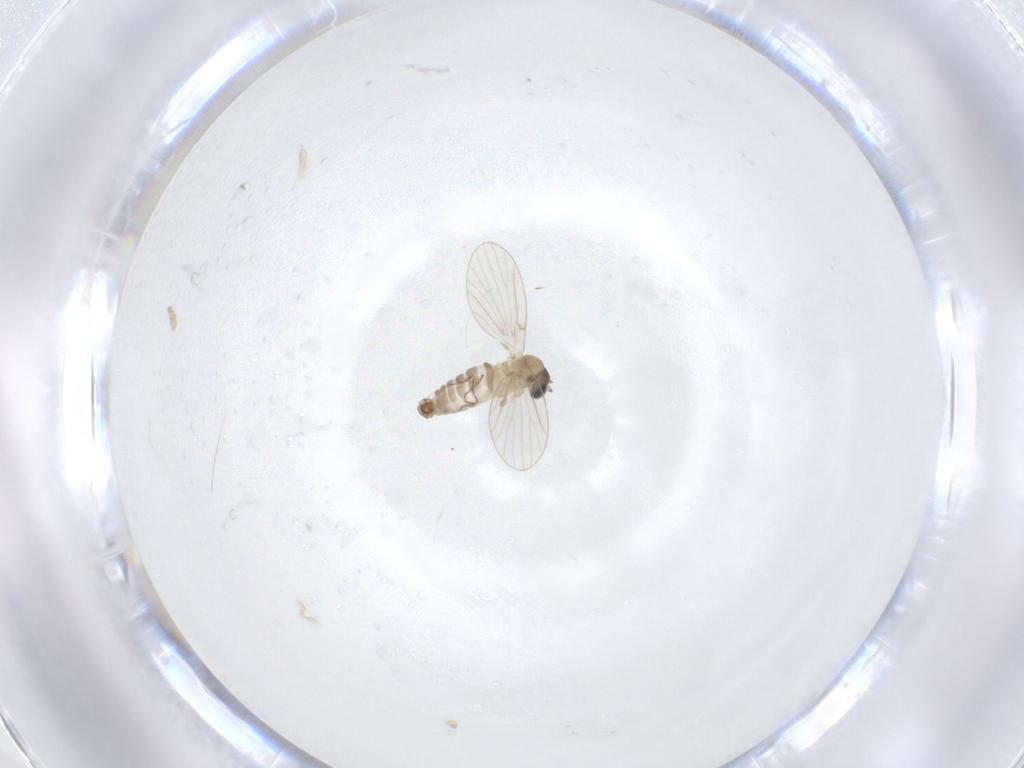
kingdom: Animalia
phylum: Arthropoda
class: Insecta
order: Diptera
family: Psychodidae
